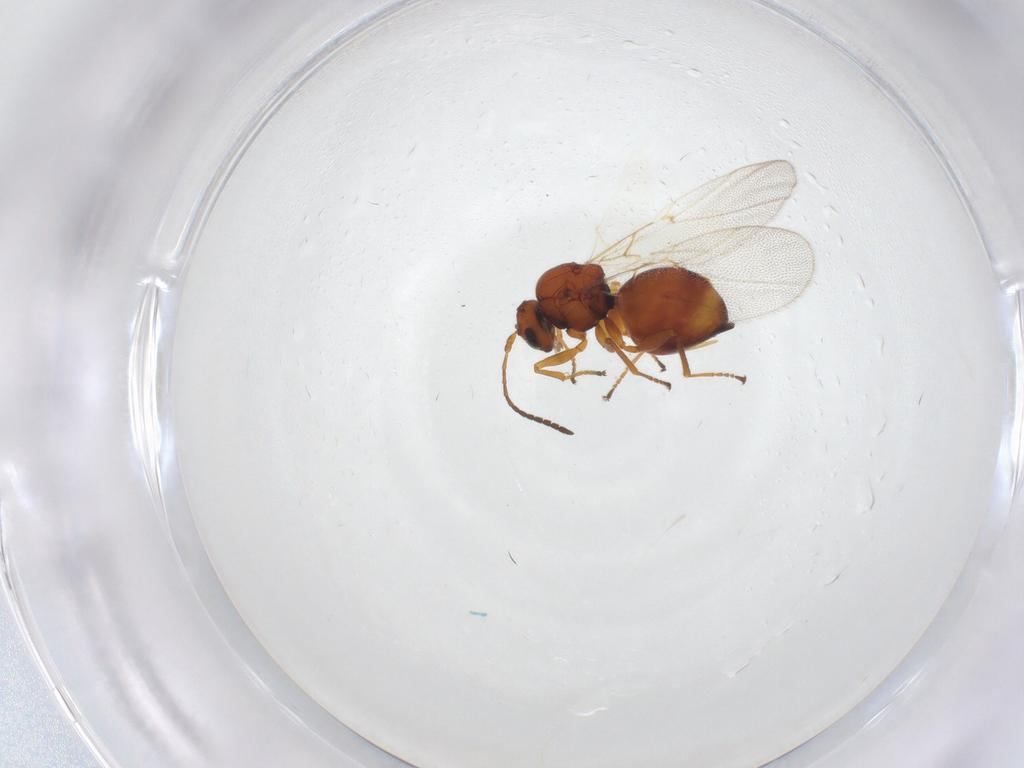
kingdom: Animalia
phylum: Arthropoda
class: Insecta
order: Hymenoptera
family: Cynipidae
